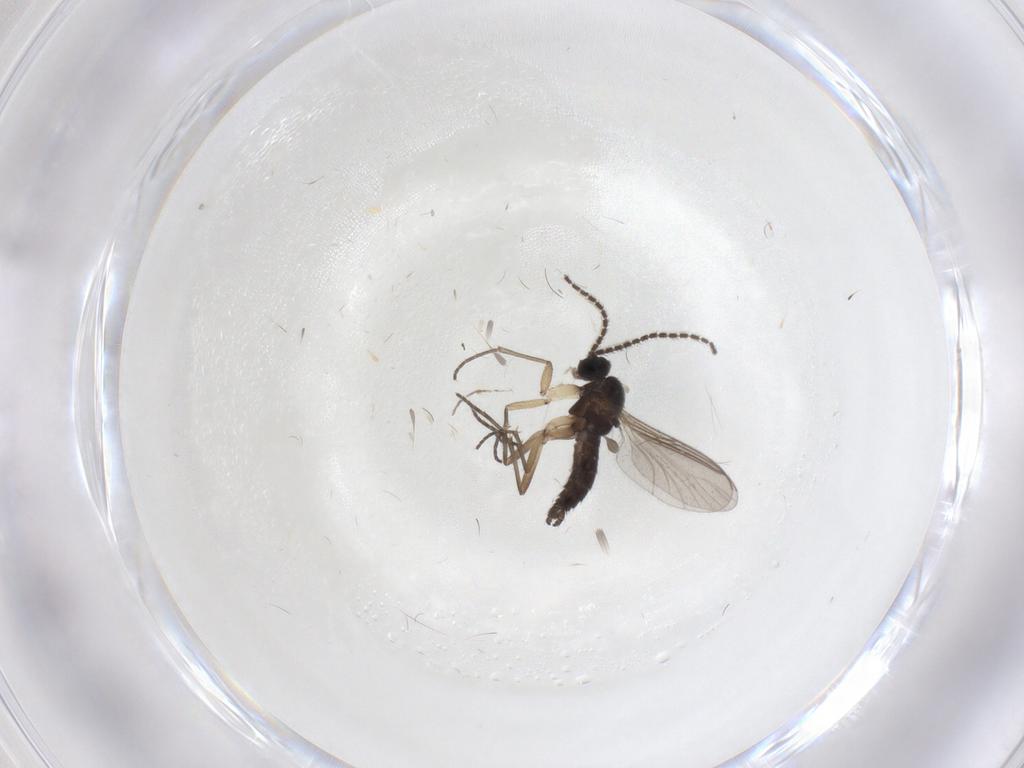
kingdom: Animalia
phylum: Arthropoda
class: Insecta
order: Diptera
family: Sciaridae
